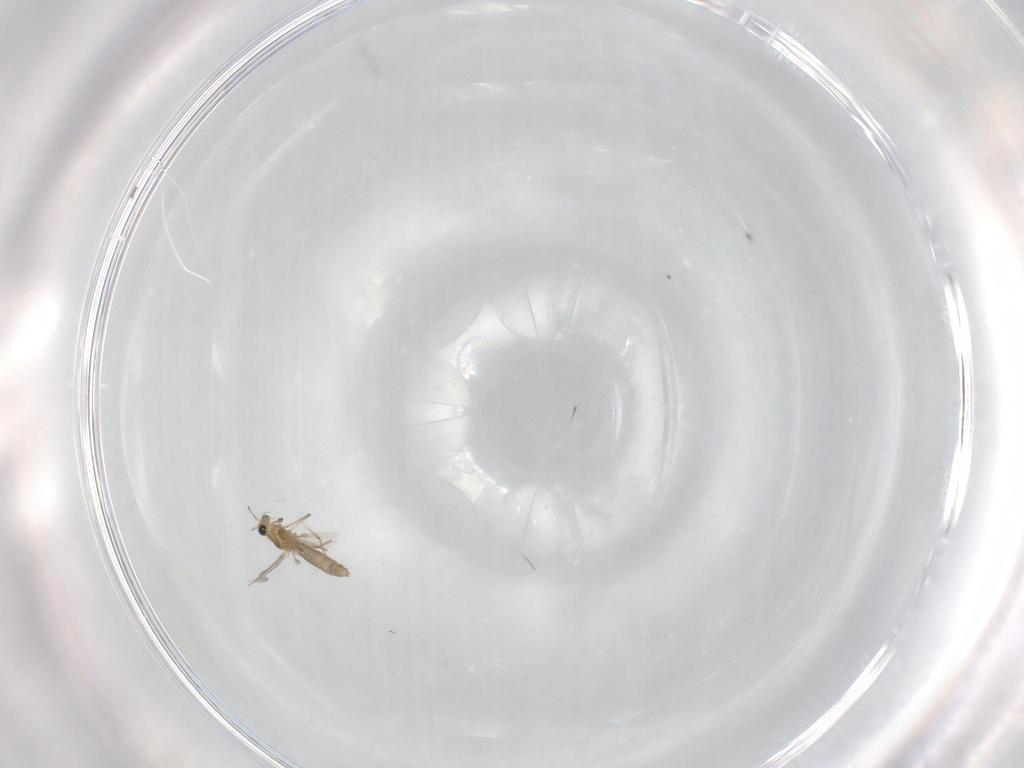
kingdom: Animalia
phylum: Arthropoda
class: Insecta
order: Diptera
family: Chironomidae
